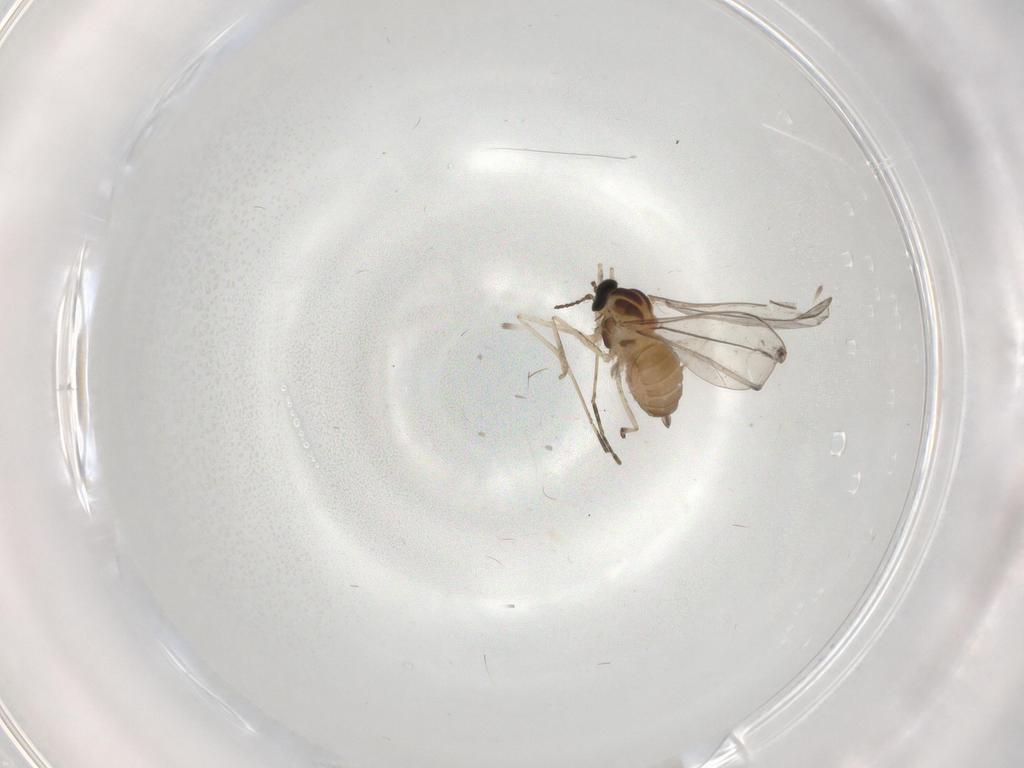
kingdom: Animalia
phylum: Arthropoda
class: Insecta
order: Diptera
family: Cecidomyiidae
